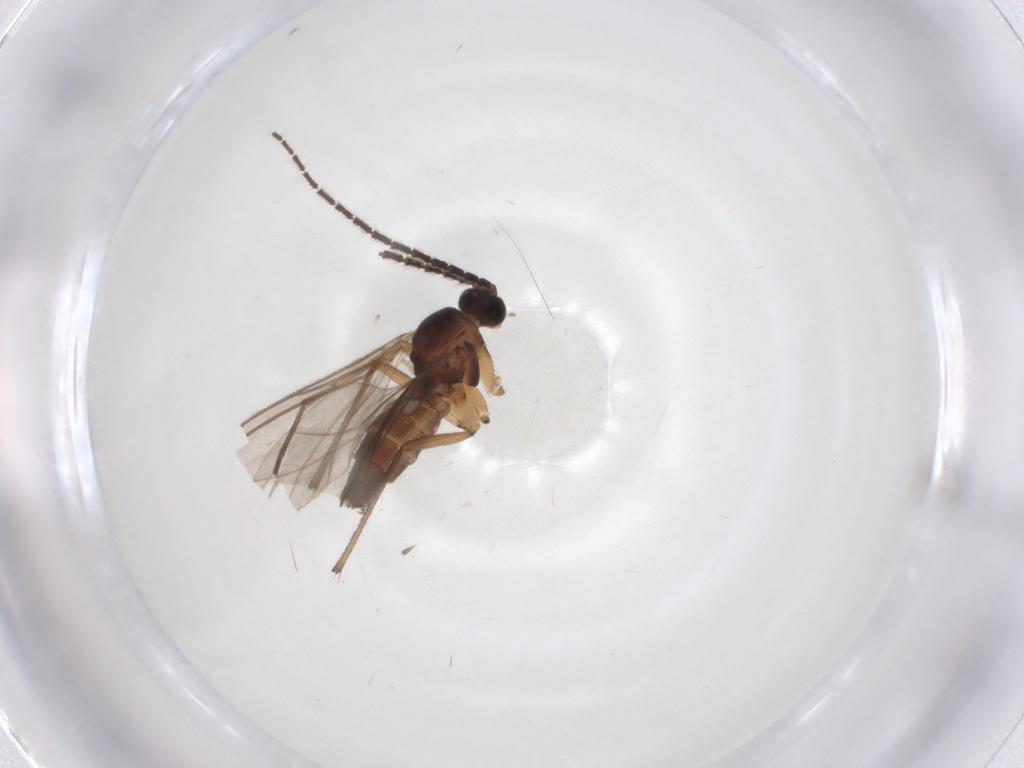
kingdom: Animalia
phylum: Arthropoda
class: Insecta
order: Diptera
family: Sciaridae
